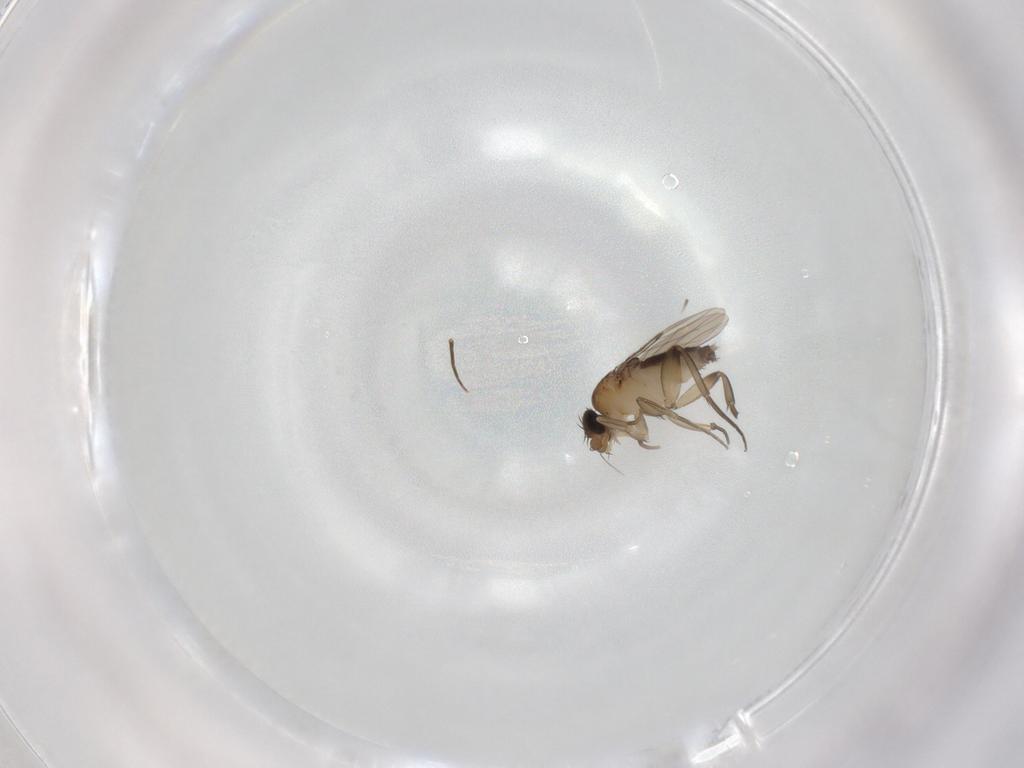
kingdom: Animalia
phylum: Arthropoda
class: Insecta
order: Diptera
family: Phoridae
